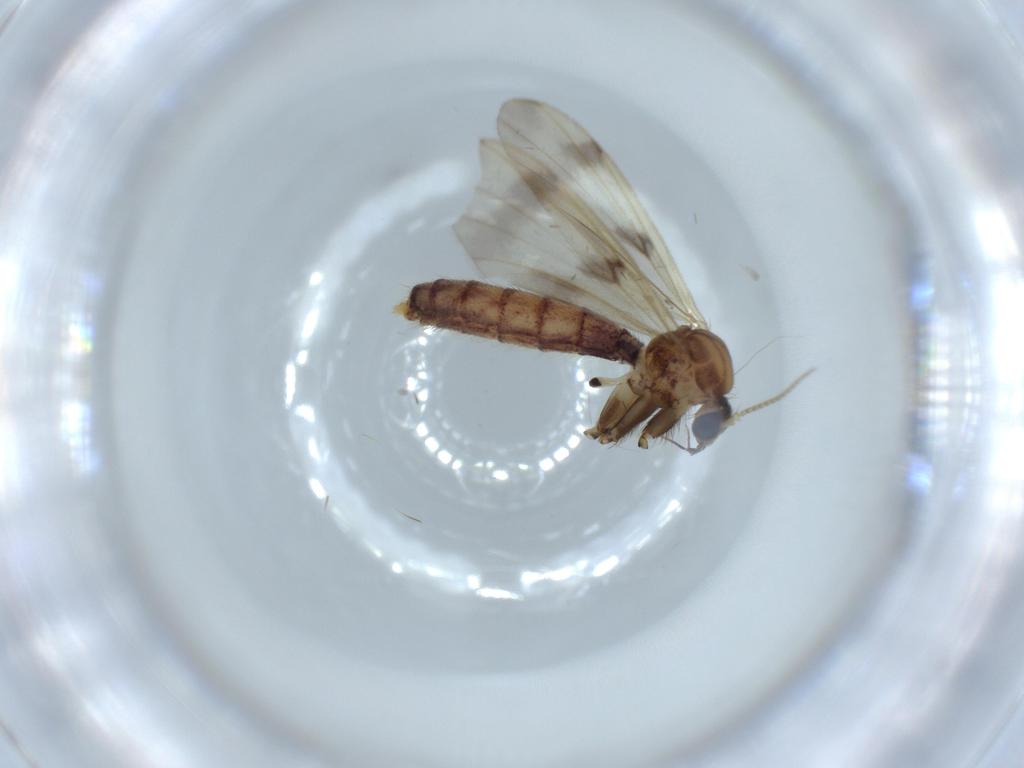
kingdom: Animalia
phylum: Arthropoda
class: Insecta
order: Diptera
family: Mycetophilidae
